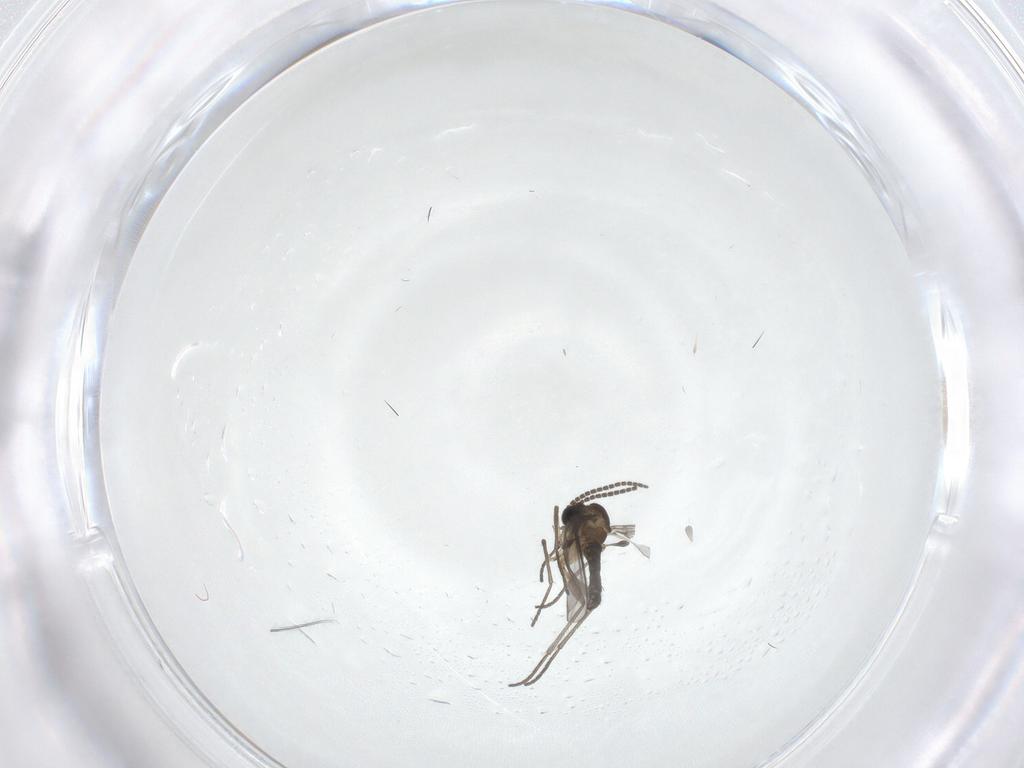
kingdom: Animalia
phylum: Arthropoda
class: Insecta
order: Diptera
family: Sciaridae
